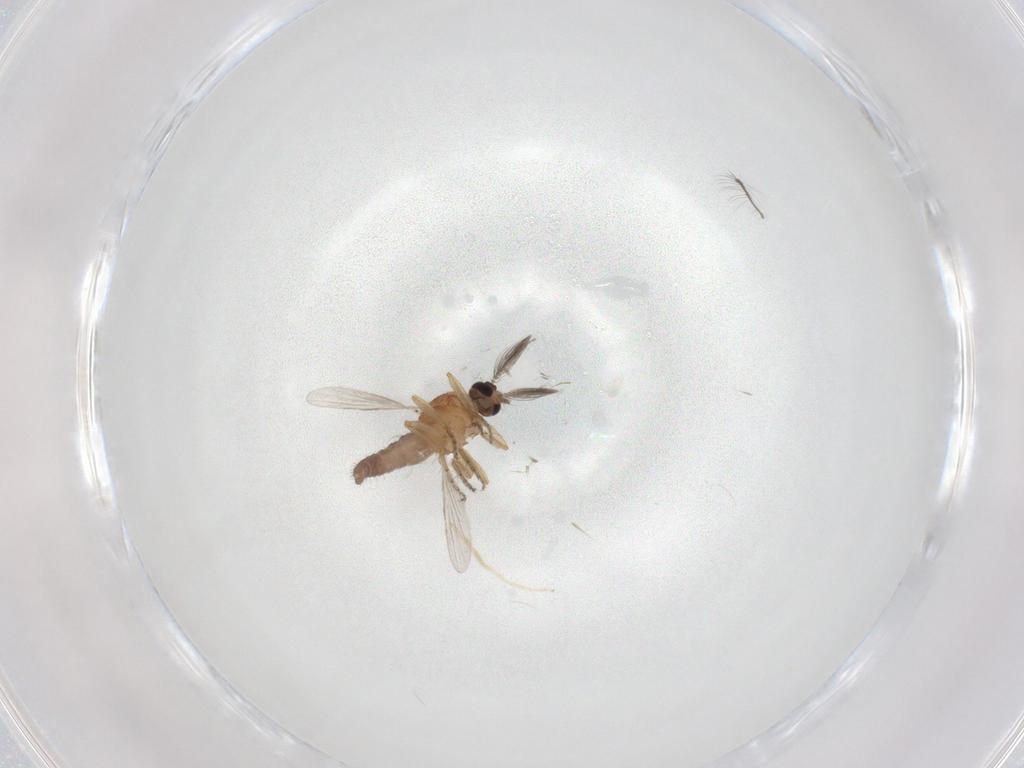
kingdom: Animalia
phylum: Arthropoda
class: Insecta
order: Diptera
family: Ceratopogonidae
